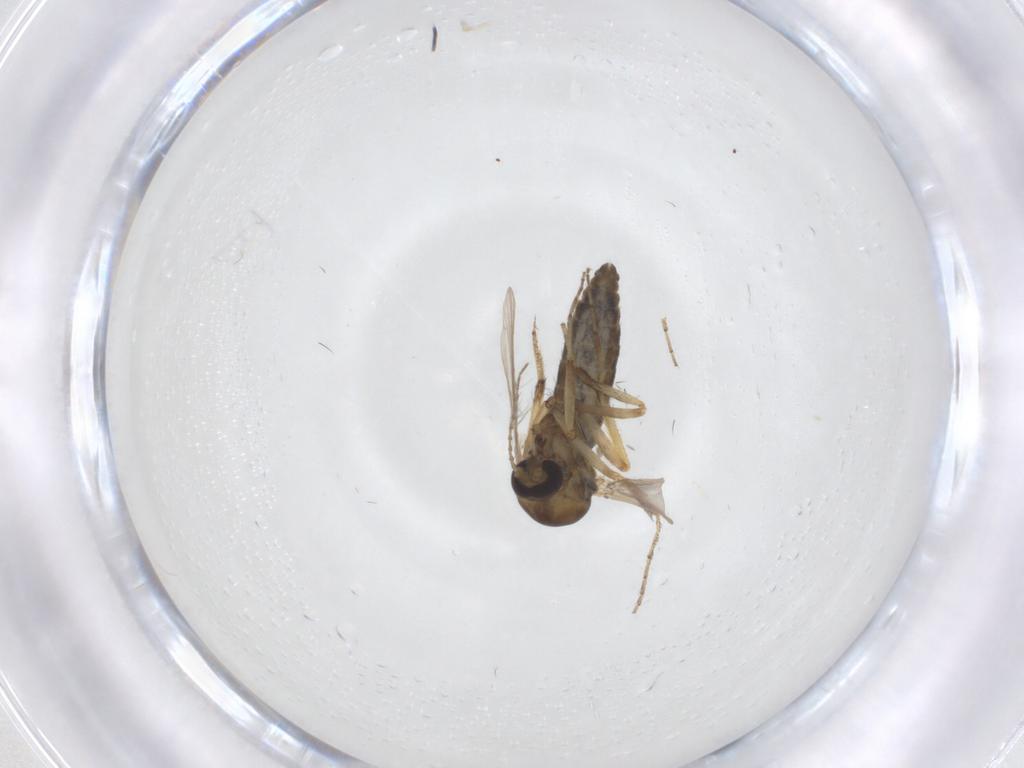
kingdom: Animalia
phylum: Arthropoda
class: Insecta
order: Diptera
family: Ceratopogonidae
